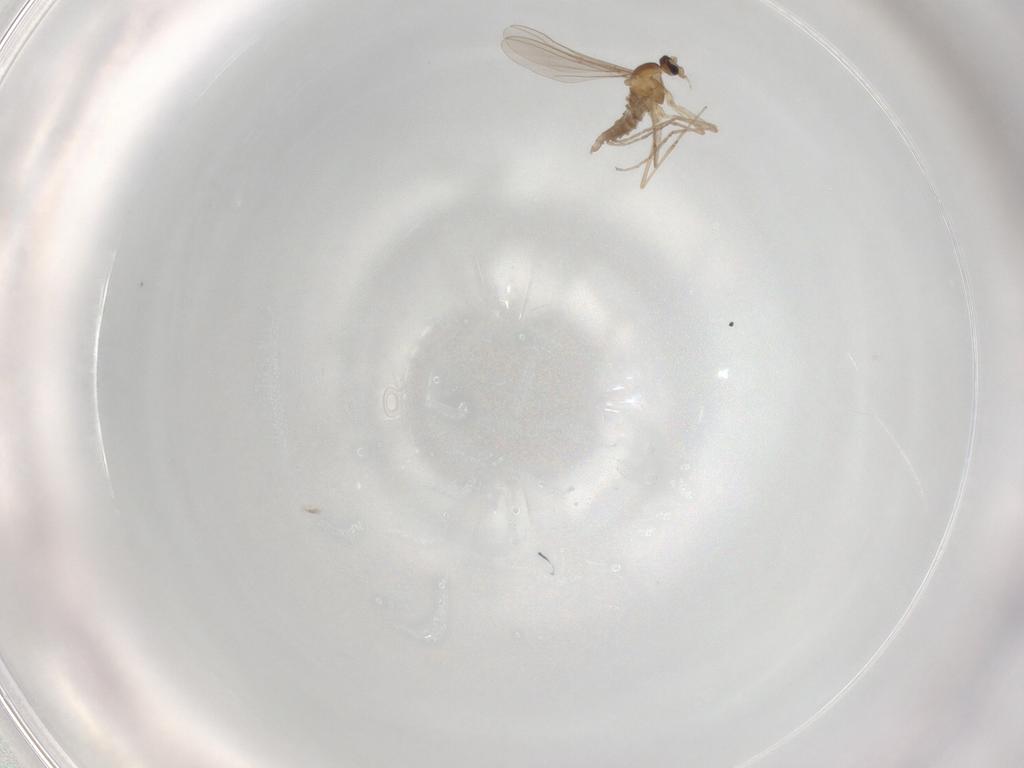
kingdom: Animalia
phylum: Arthropoda
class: Insecta
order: Diptera
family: Cecidomyiidae
